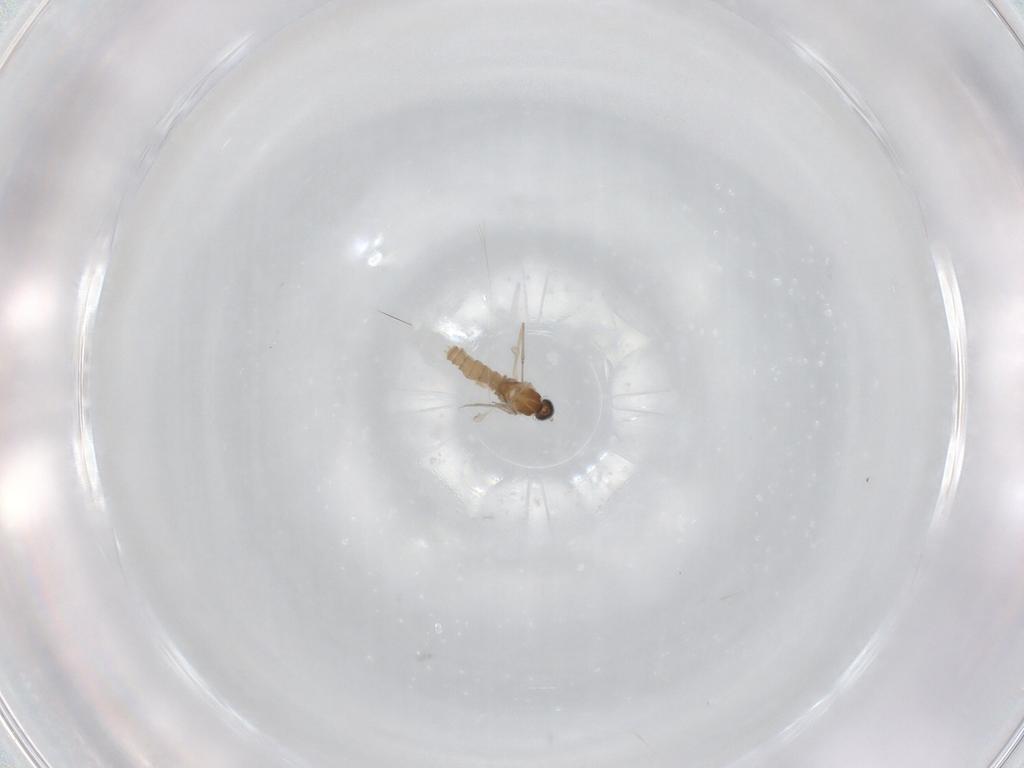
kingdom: Animalia
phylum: Arthropoda
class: Insecta
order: Diptera
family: Cecidomyiidae
